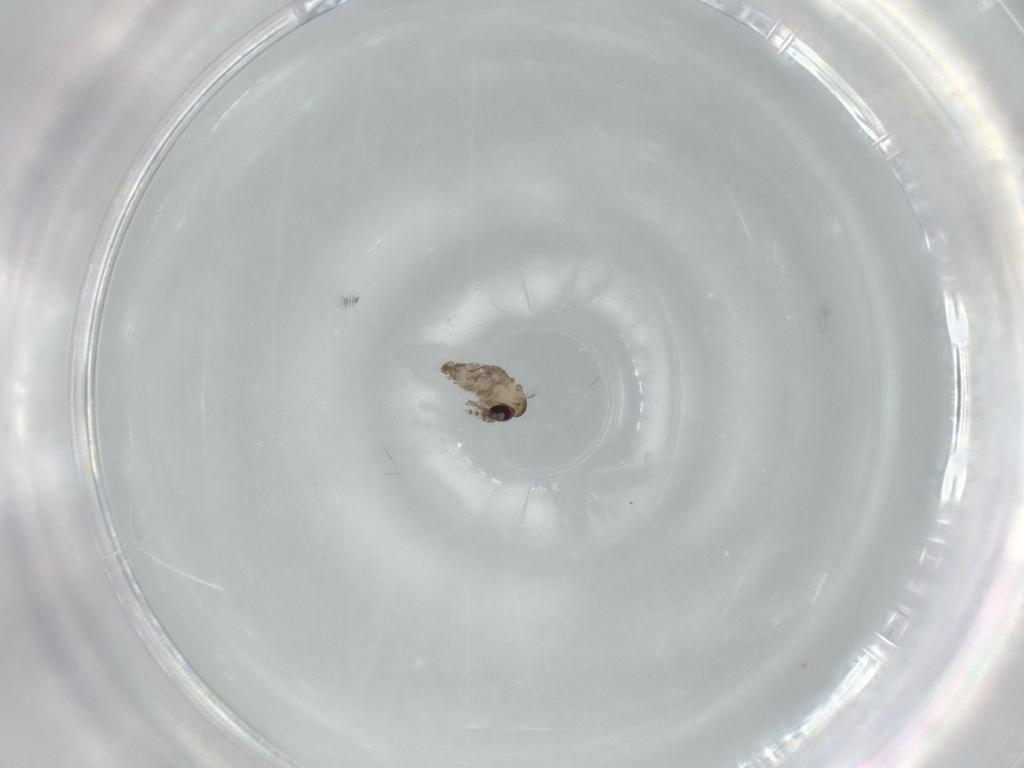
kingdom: Animalia
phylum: Arthropoda
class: Insecta
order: Diptera
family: Psychodidae
